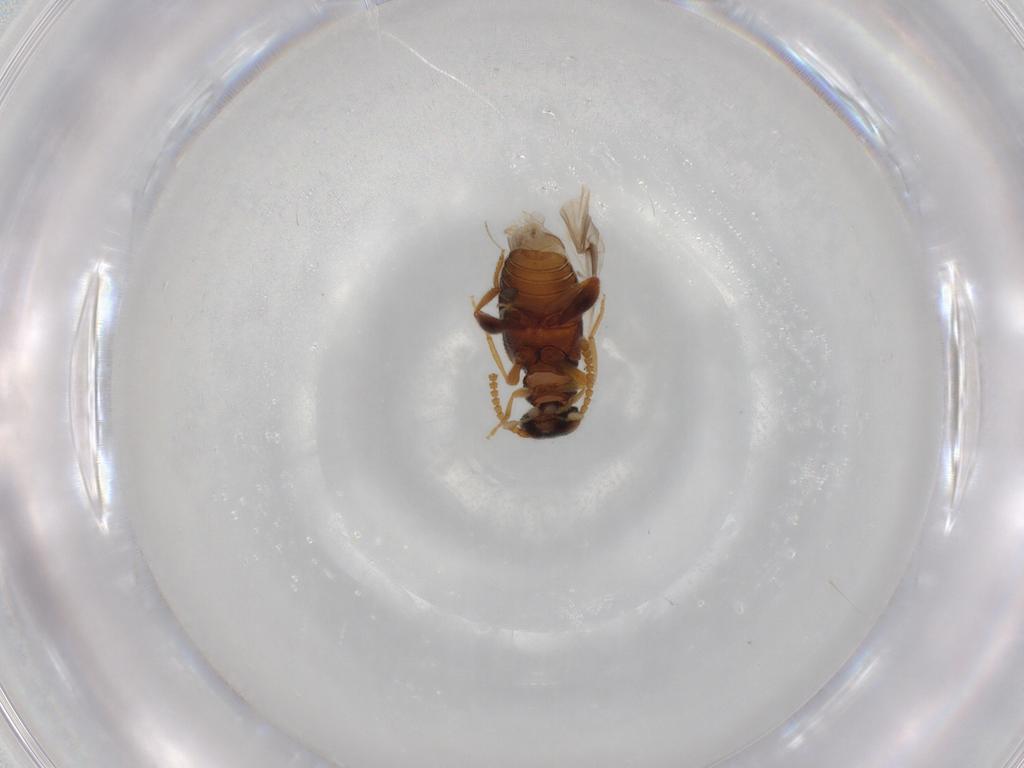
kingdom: Animalia
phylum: Arthropoda
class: Insecta
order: Coleoptera
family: Aderidae
